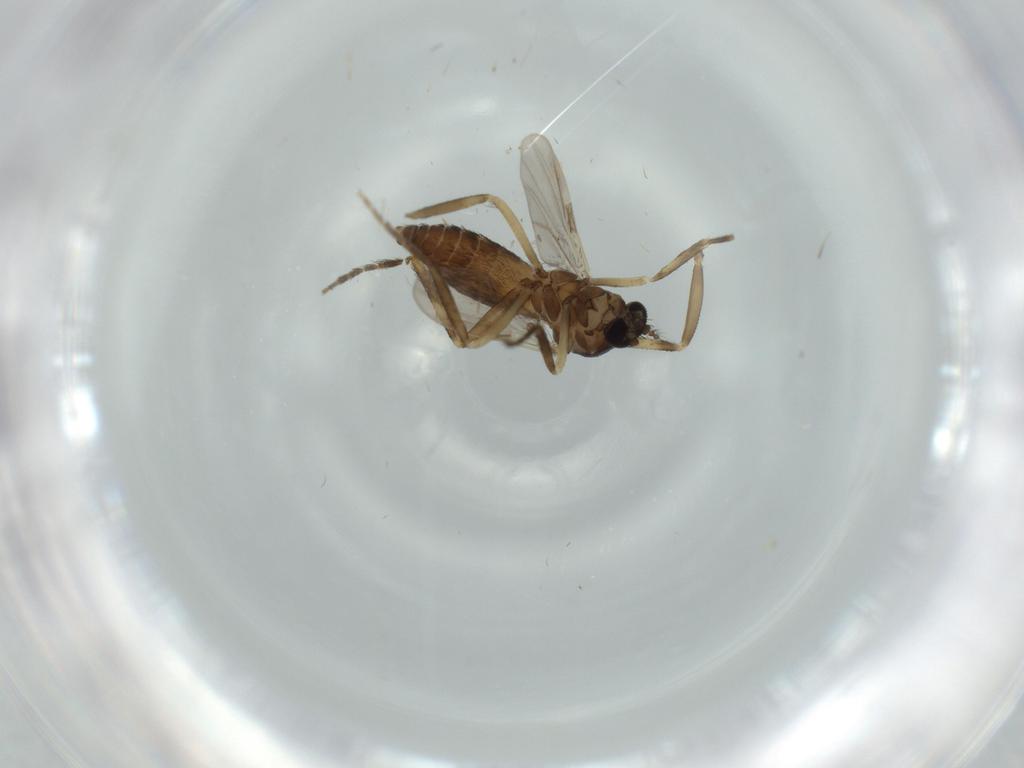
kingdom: Animalia
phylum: Arthropoda
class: Insecta
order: Diptera
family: Ceratopogonidae
